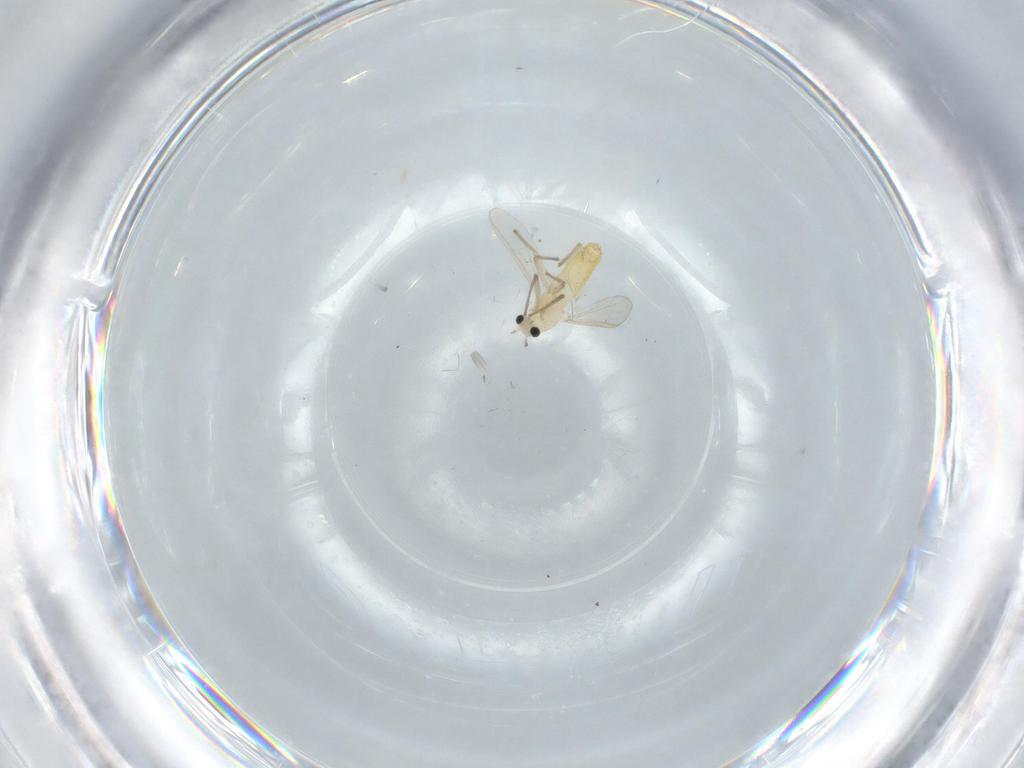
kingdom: Animalia
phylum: Arthropoda
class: Insecta
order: Diptera
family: Chironomidae
